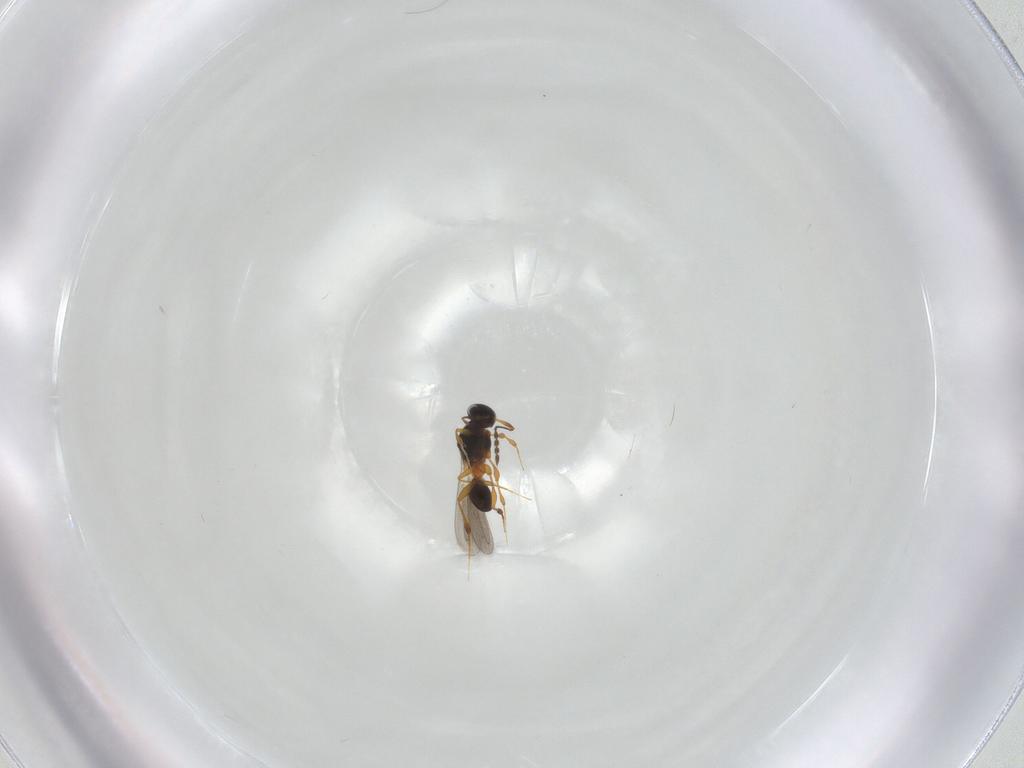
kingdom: Animalia
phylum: Arthropoda
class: Insecta
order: Hymenoptera
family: Platygastridae
